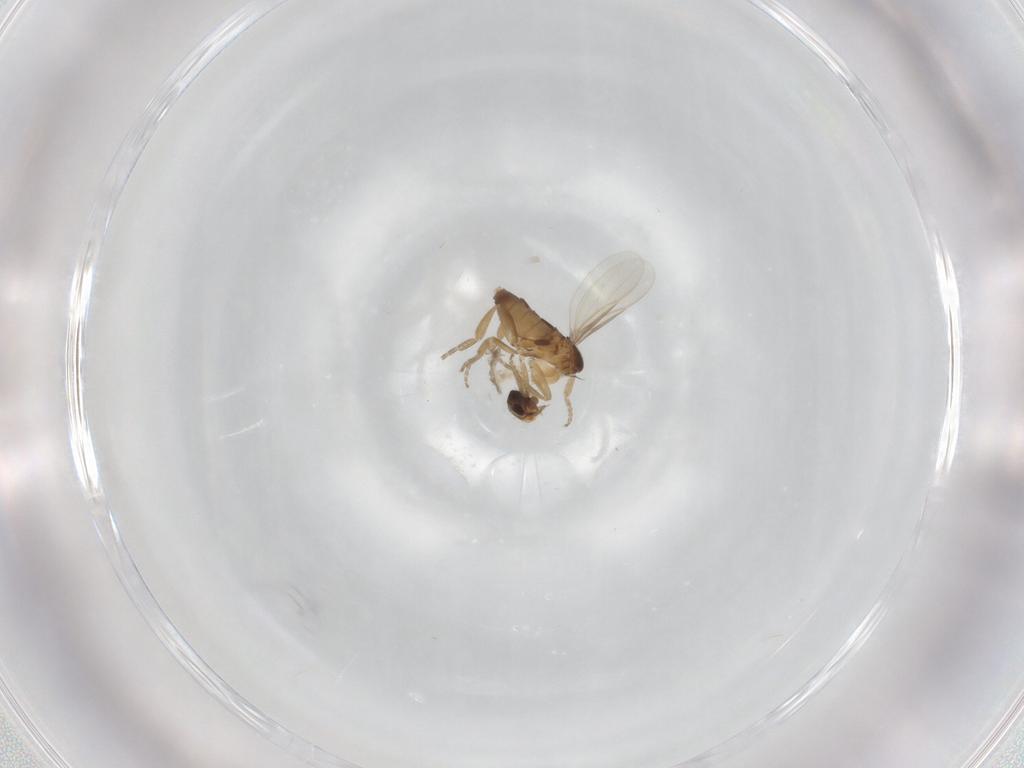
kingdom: Animalia
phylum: Arthropoda
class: Insecta
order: Diptera
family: Phoridae
